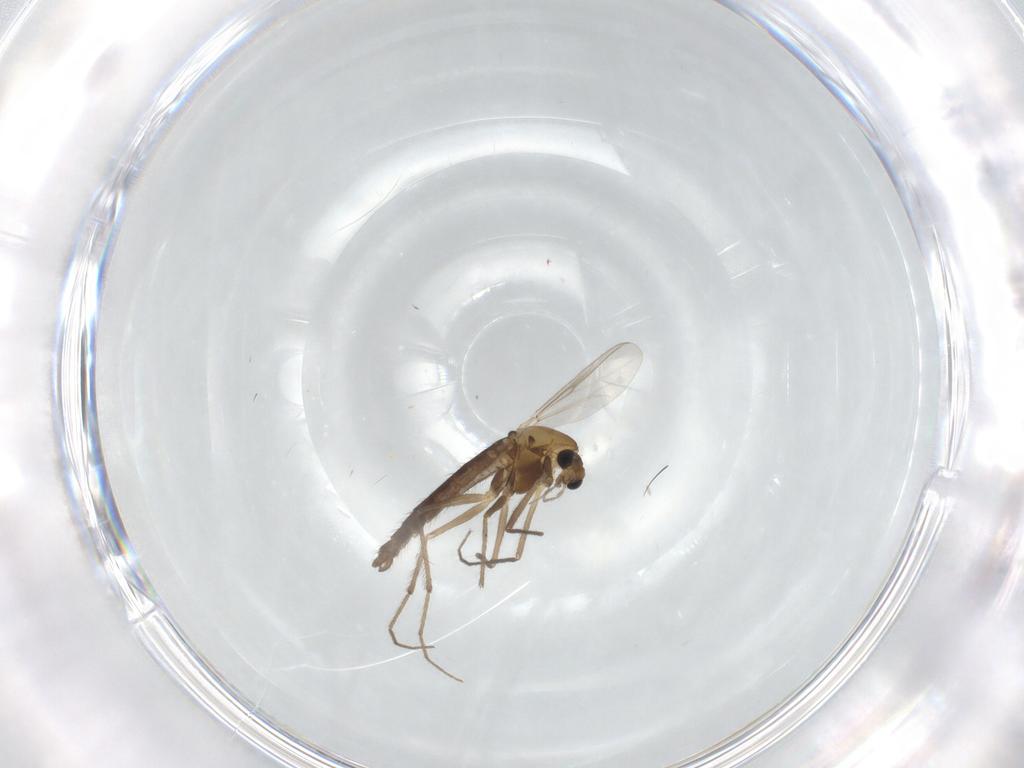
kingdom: Animalia
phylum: Arthropoda
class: Insecta
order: Diptera
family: Chironomidae
